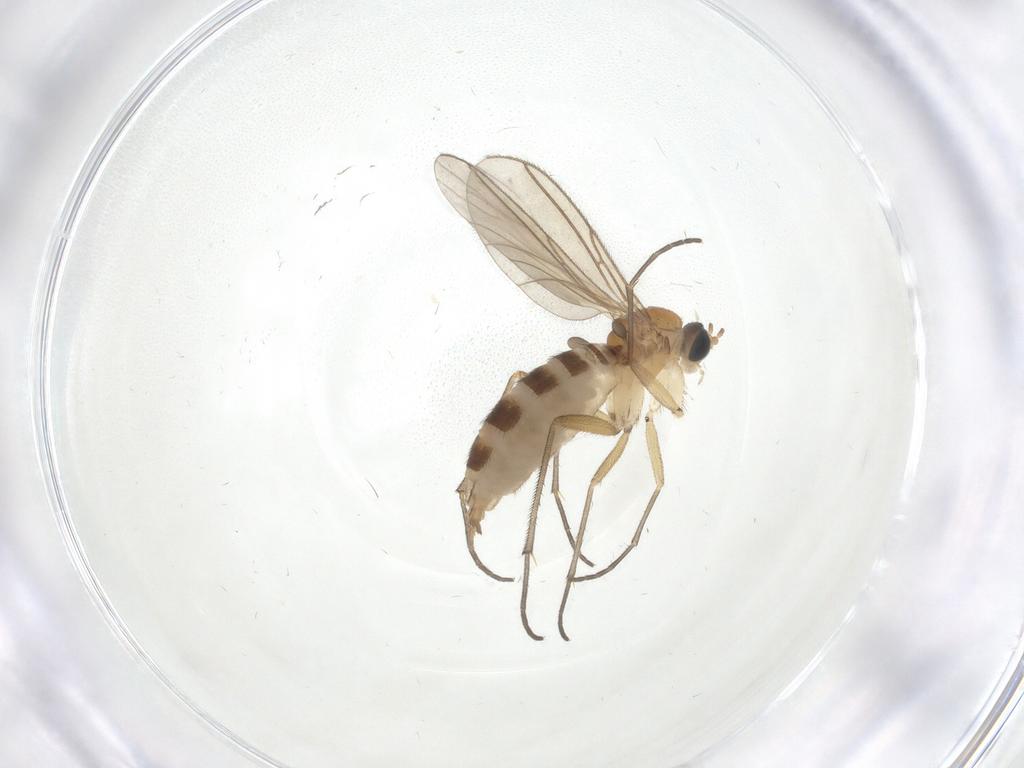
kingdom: Animalia
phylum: Arthropoda
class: Insecta
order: Diptera
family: Sciaridae
